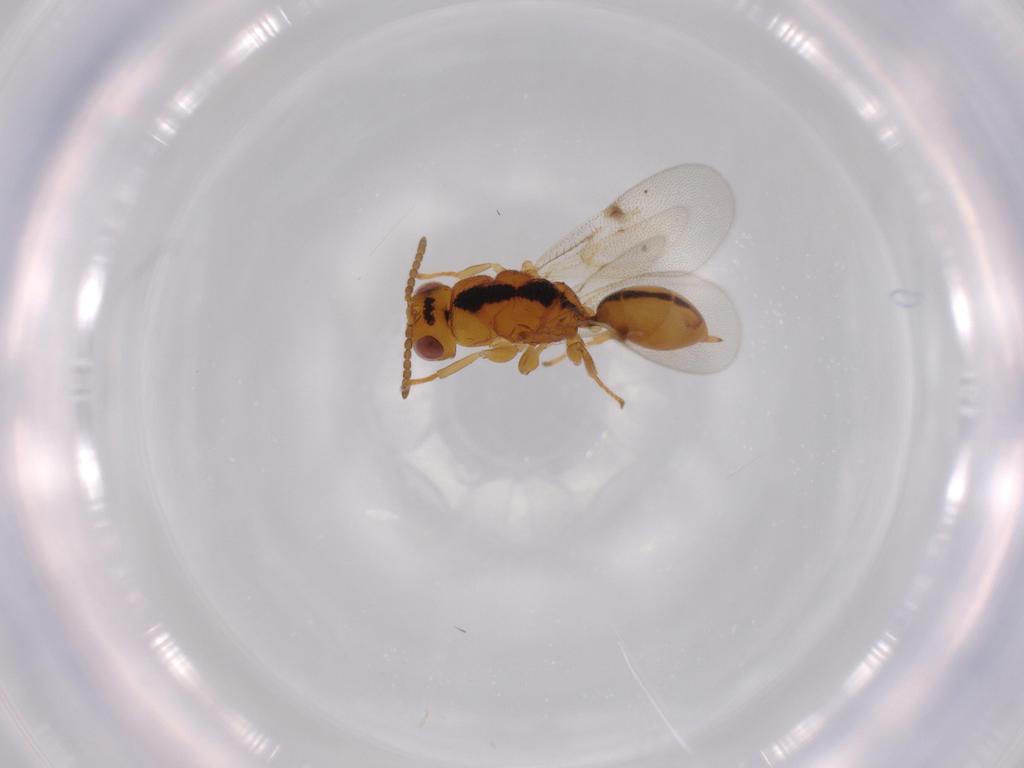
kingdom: Animalia
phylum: Arthropoda
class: Insecta
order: Hymenoptera
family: Eurytomidae
